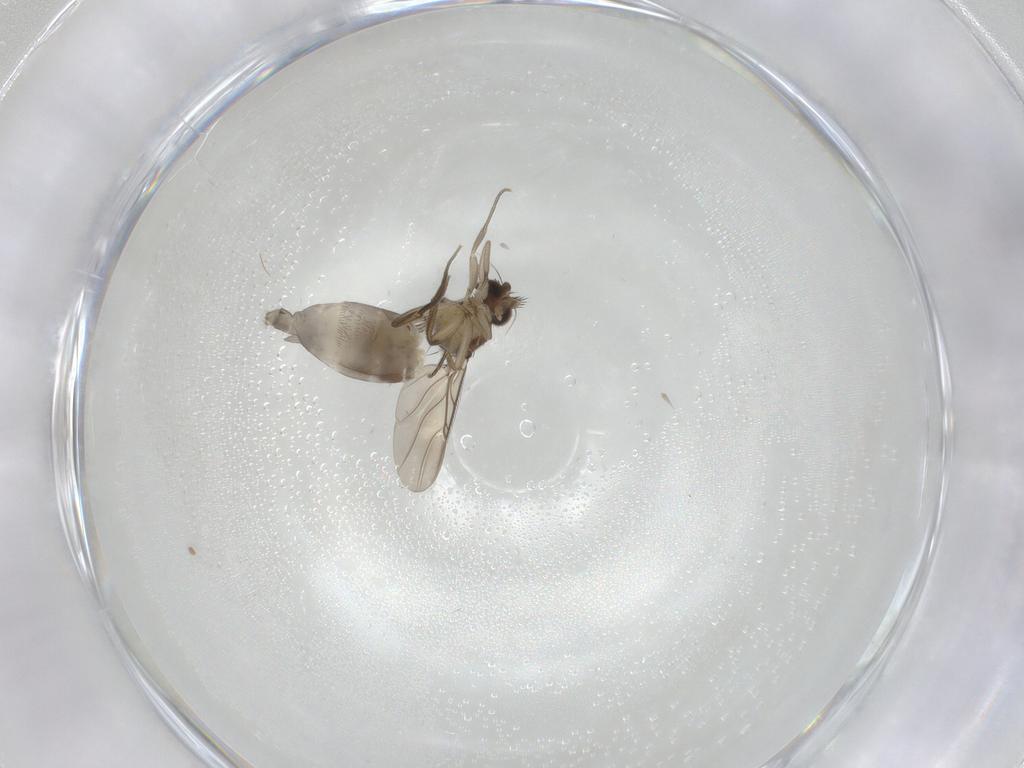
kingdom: Animalia
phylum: Arthropoda
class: Insecta
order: Diptera
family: Phoridae
